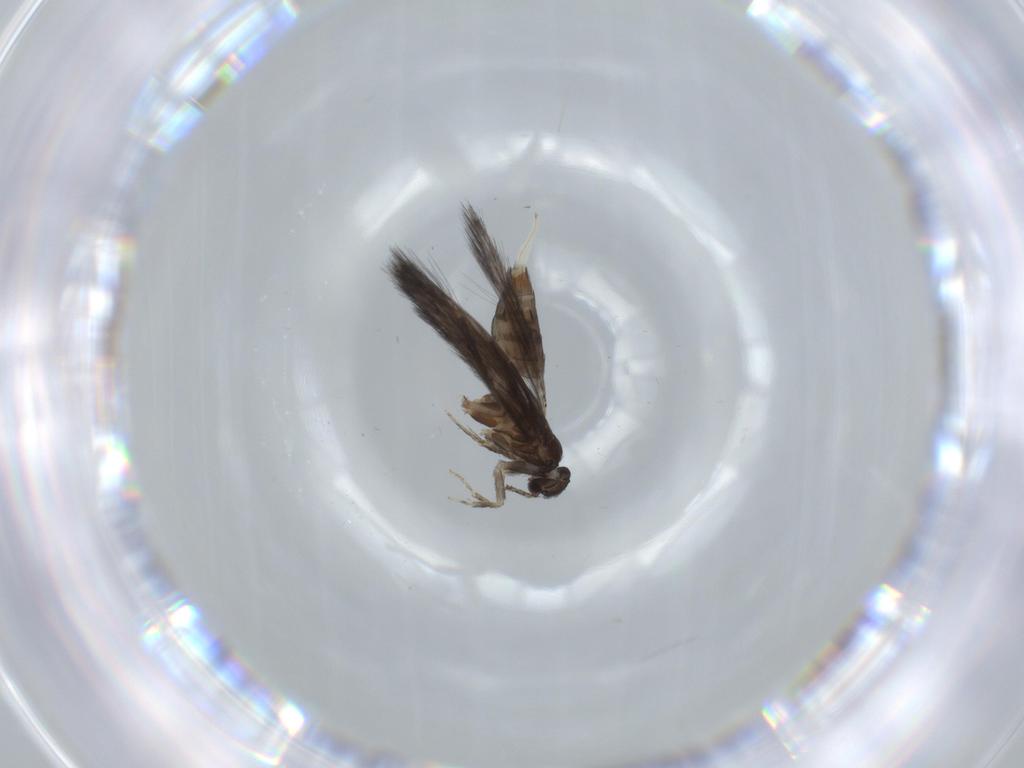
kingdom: Animalia
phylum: Arthropoda
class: Insecta
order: Trichoptera
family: Hydroptilidae
